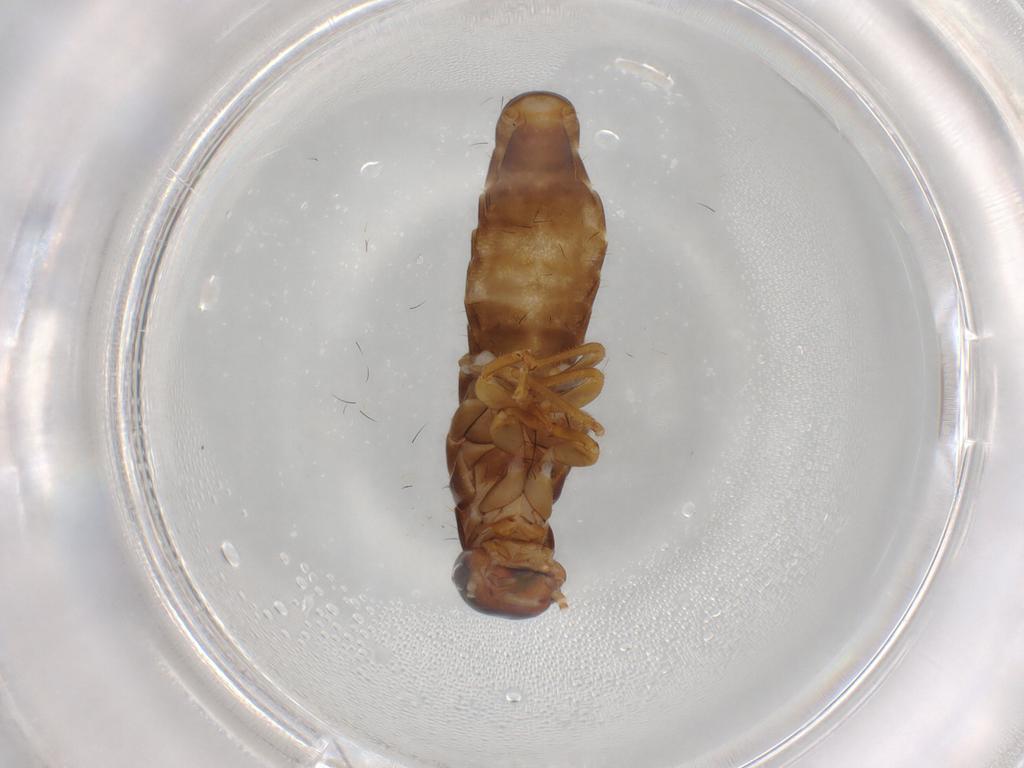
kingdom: Animalia
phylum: Arthropoda
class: Insecta
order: Blattodea
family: Kalotermitidae
